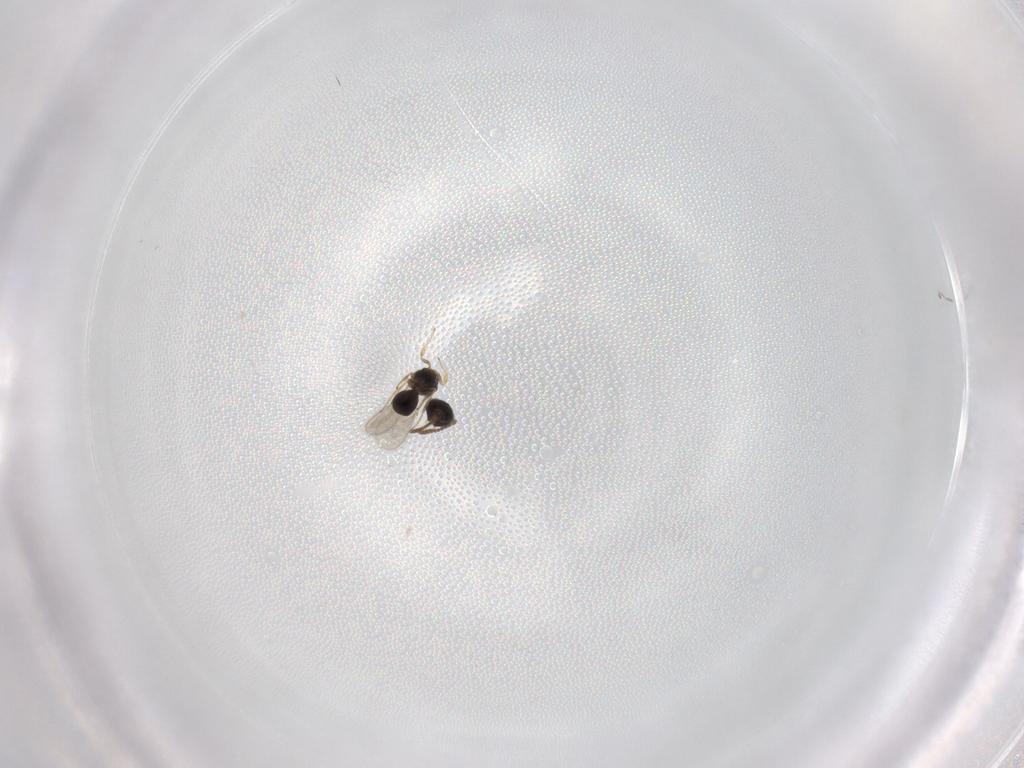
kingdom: Animalia
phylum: Arthropoda
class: Insecta
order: Hymenoptera
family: Scelionidae
